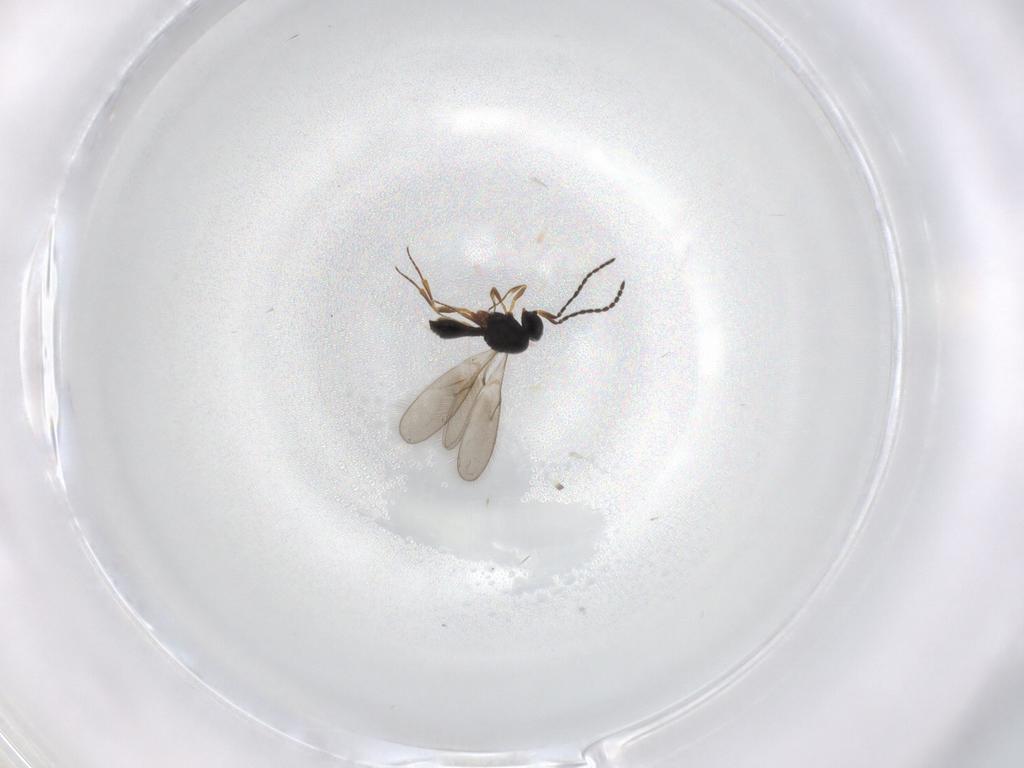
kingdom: Animalia
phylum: Arthropoda
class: Insecta
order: Hymenoptera
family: Scelionidae
